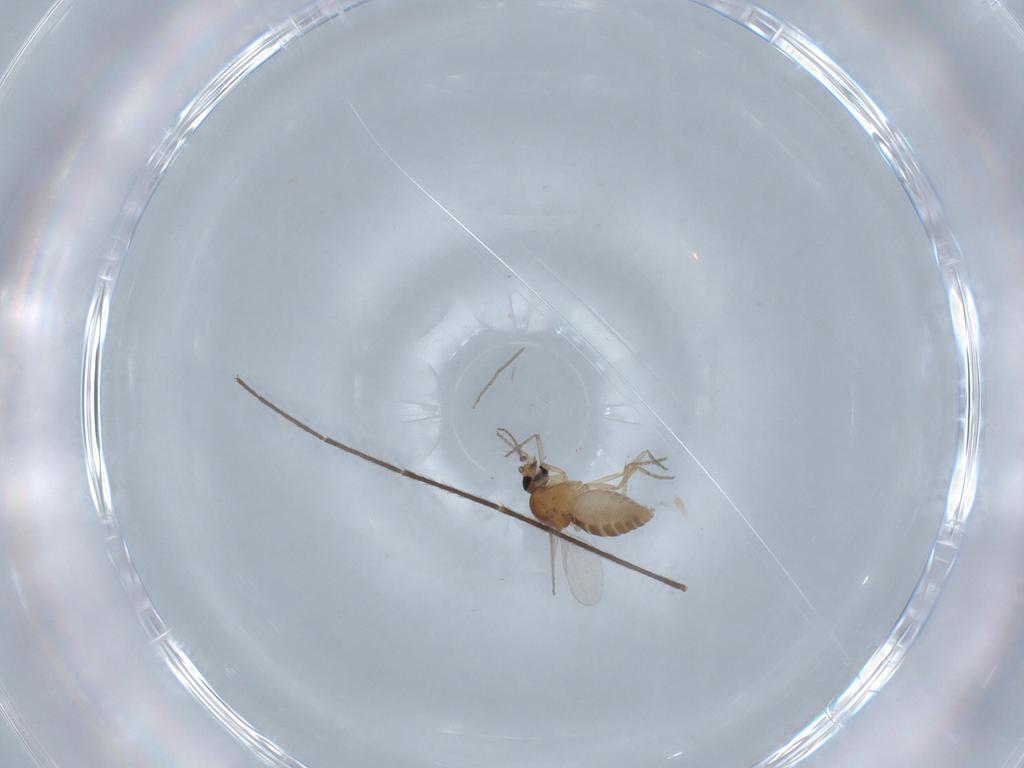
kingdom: Animalia
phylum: Arthropoda
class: Insecta
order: Diptera
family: Ceratopogonidae
